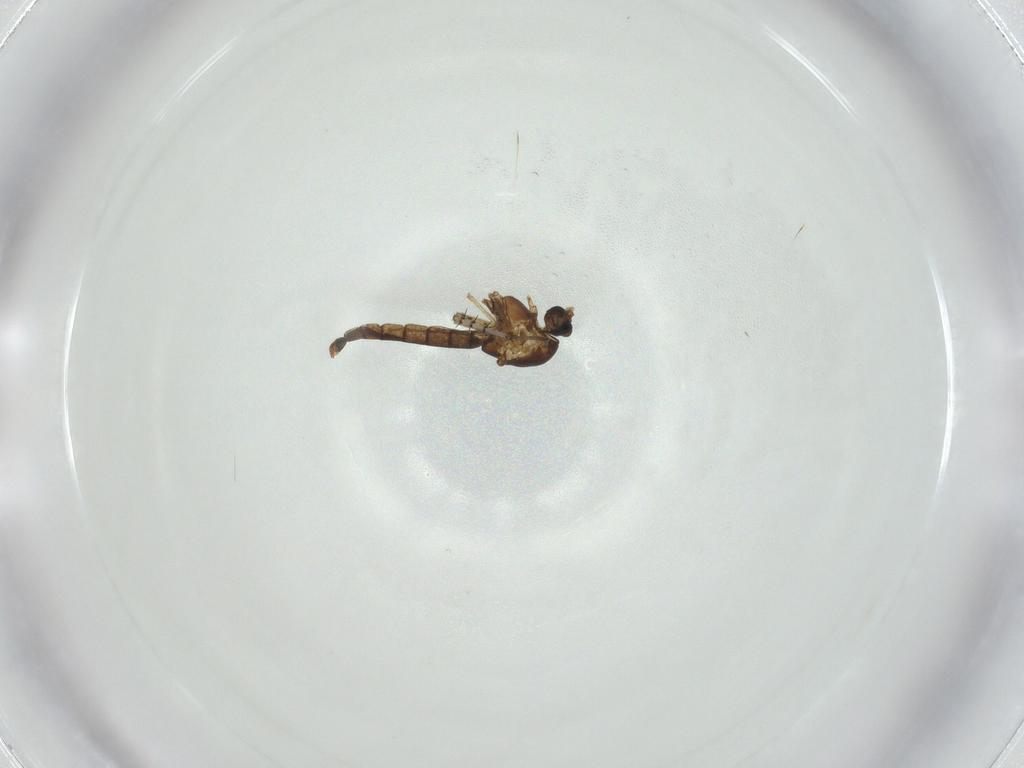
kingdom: Animalia
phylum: Arthropoda
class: Insecta
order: Diptera
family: Chironomidae
